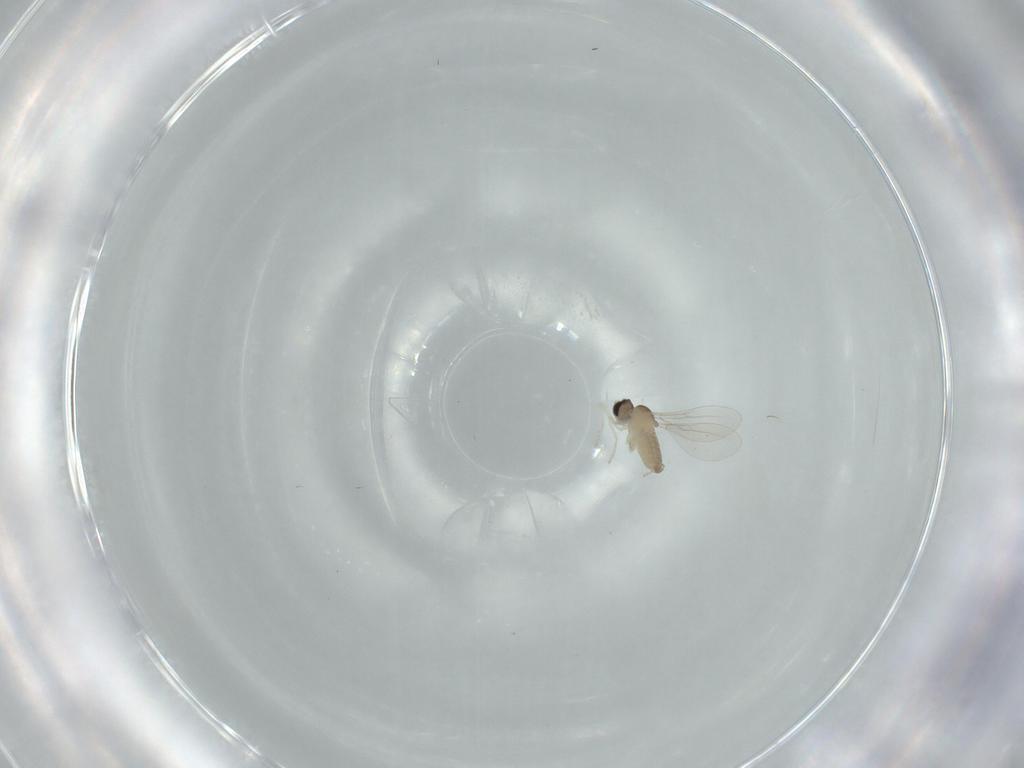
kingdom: Animalia
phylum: Arthropoda
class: Insecta
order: Diptera
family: Cecidomyiidae
